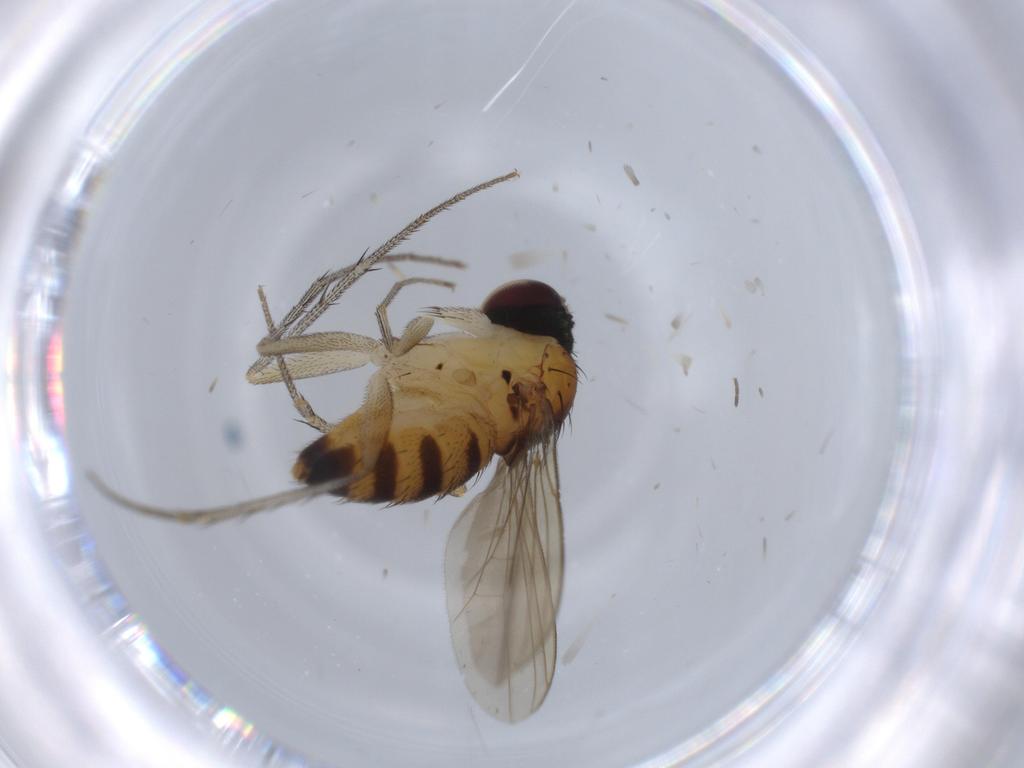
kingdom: Animalia
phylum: Arthropoda
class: Insecta
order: Diptera
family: Dolichopodidae
